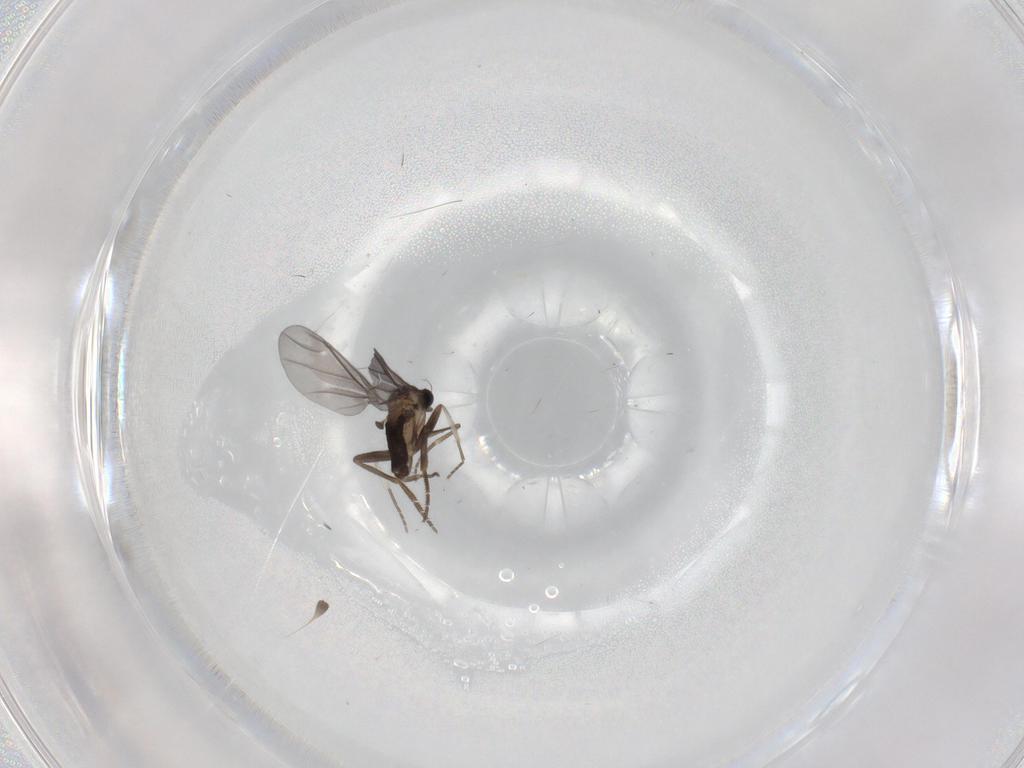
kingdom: Animalia
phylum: Arthropoda
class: Insecta
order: Diptera
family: Phoridae
